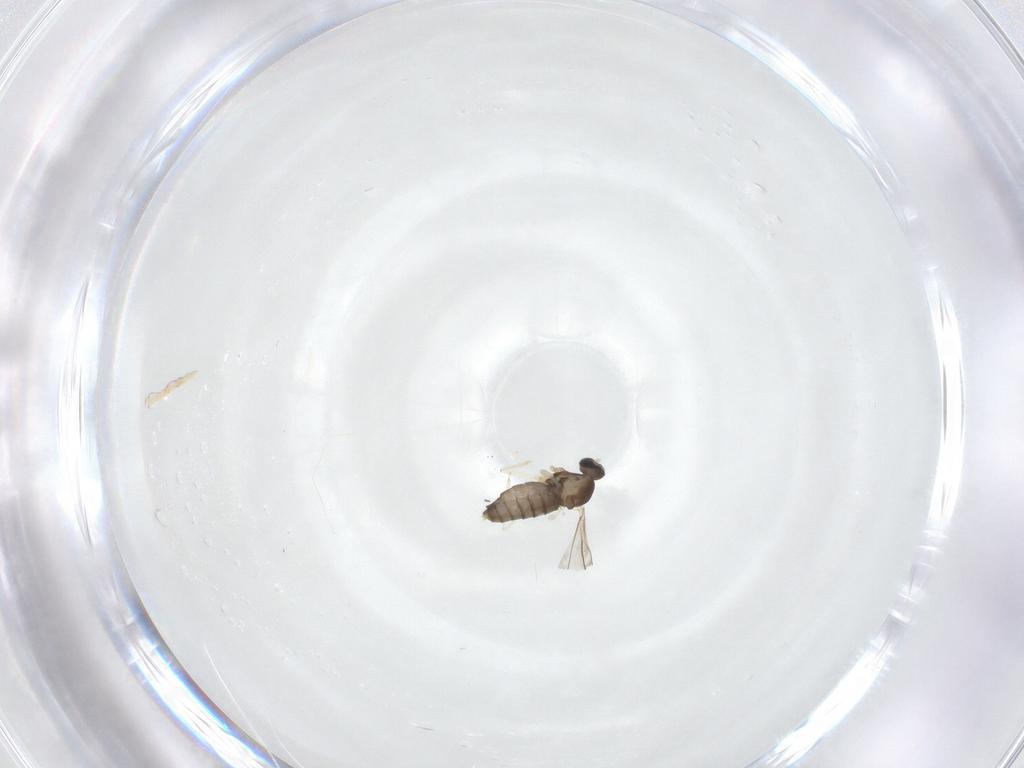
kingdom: Animalia
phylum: Arthropoda
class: Insecta
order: Diptera
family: Cecidomyiidae
